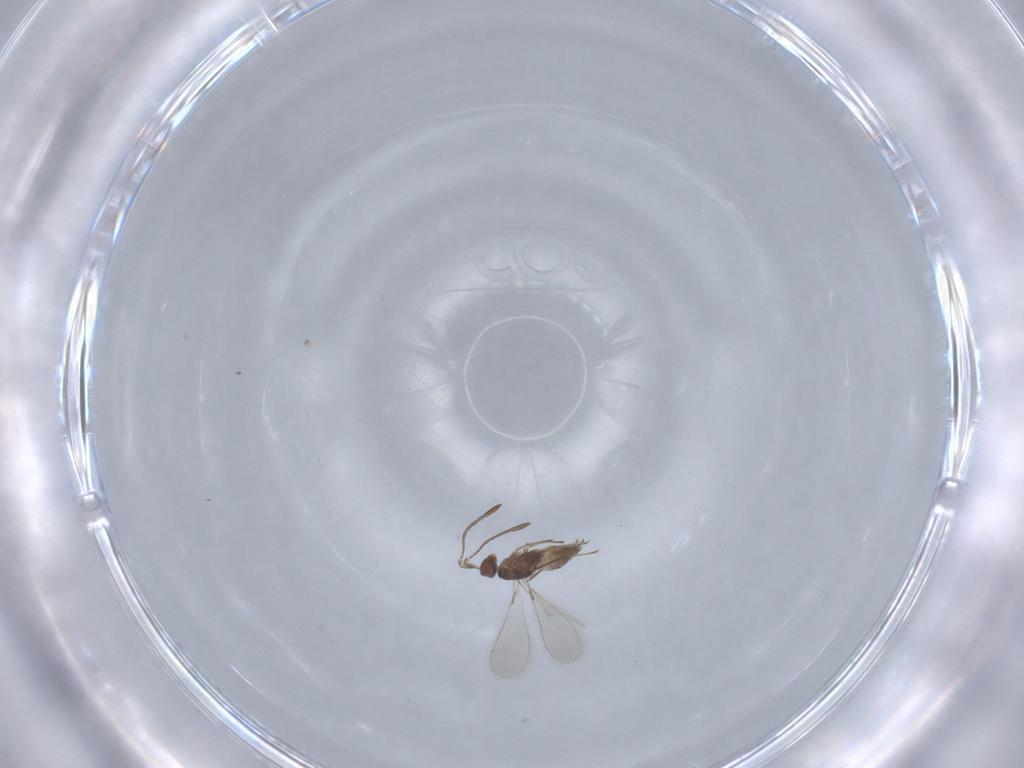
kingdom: Animalia
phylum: Arthropoda
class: Insecta
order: Hymenoptera
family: Mymaridae
